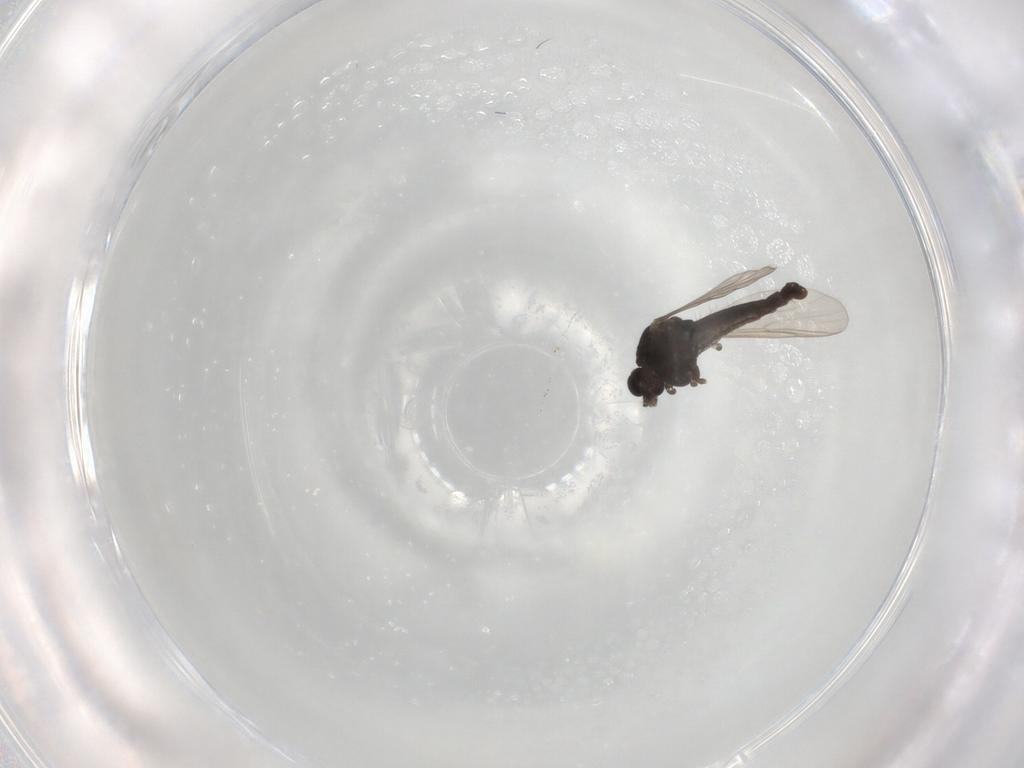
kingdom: Animalia
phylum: Arthropoda
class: Insecta
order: Diptera
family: Chironomidae
